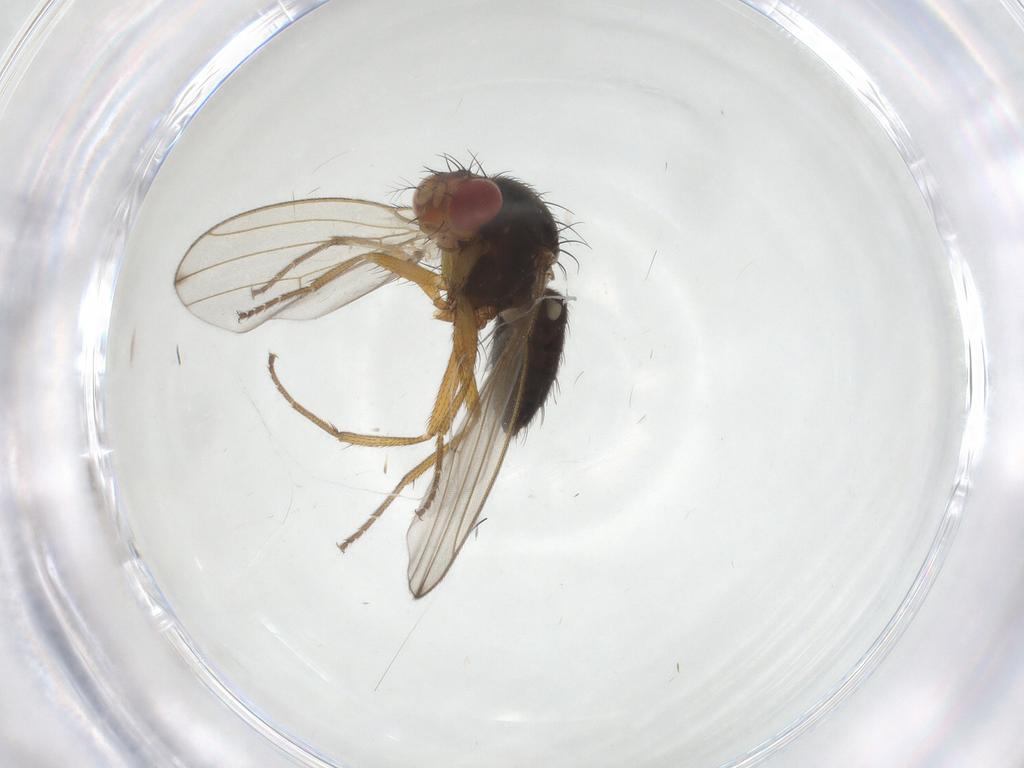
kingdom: Animalia
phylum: Arthropoda
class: Insecta
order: Diptera
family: Drosophilidae
